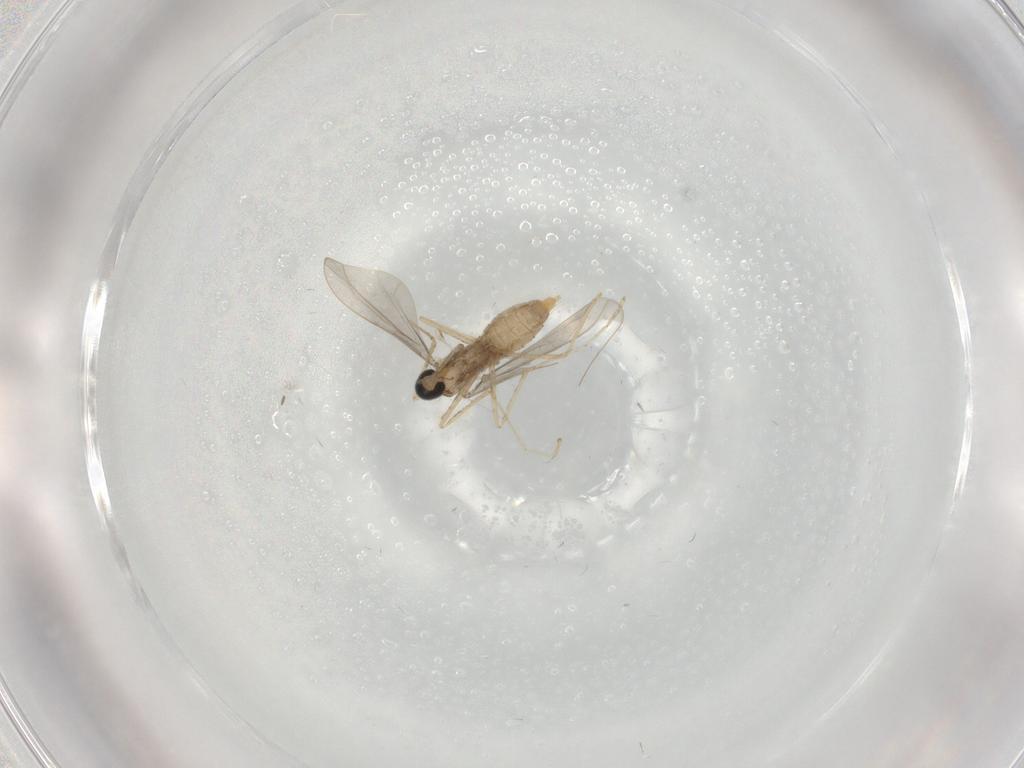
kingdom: Animalia
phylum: Arthropoda
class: Insecta
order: Diptera
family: Cecidomyiidae
